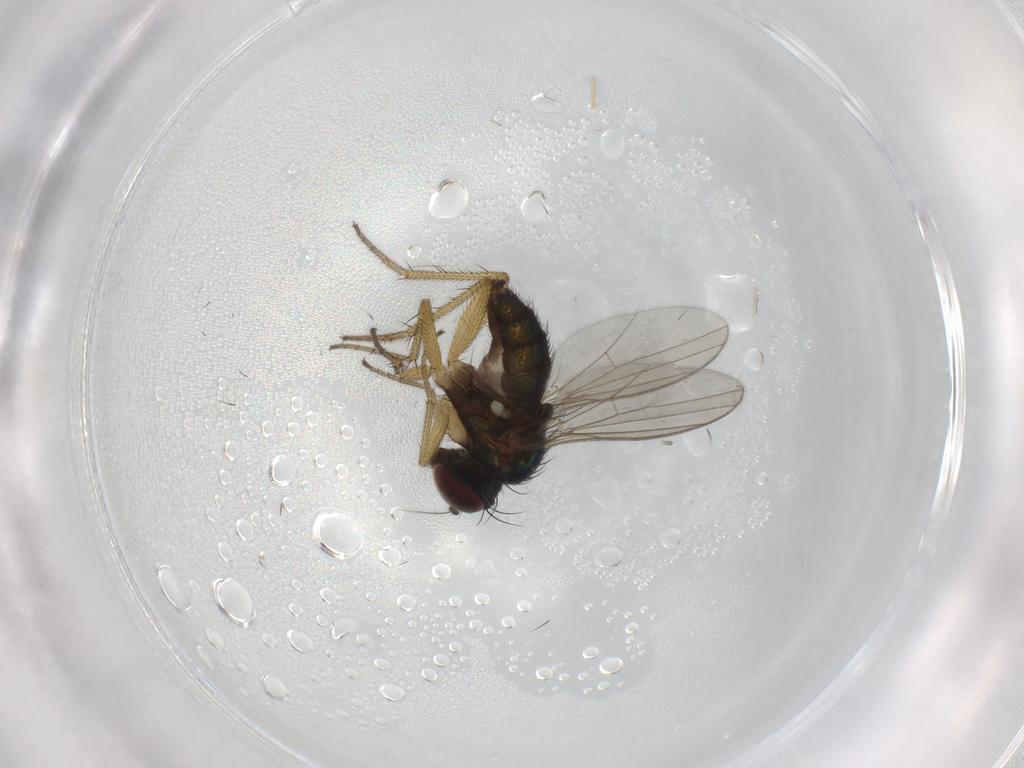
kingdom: Animalia
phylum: Arthropoda
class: Insecta
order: Diptera
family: Dolichopodidae
